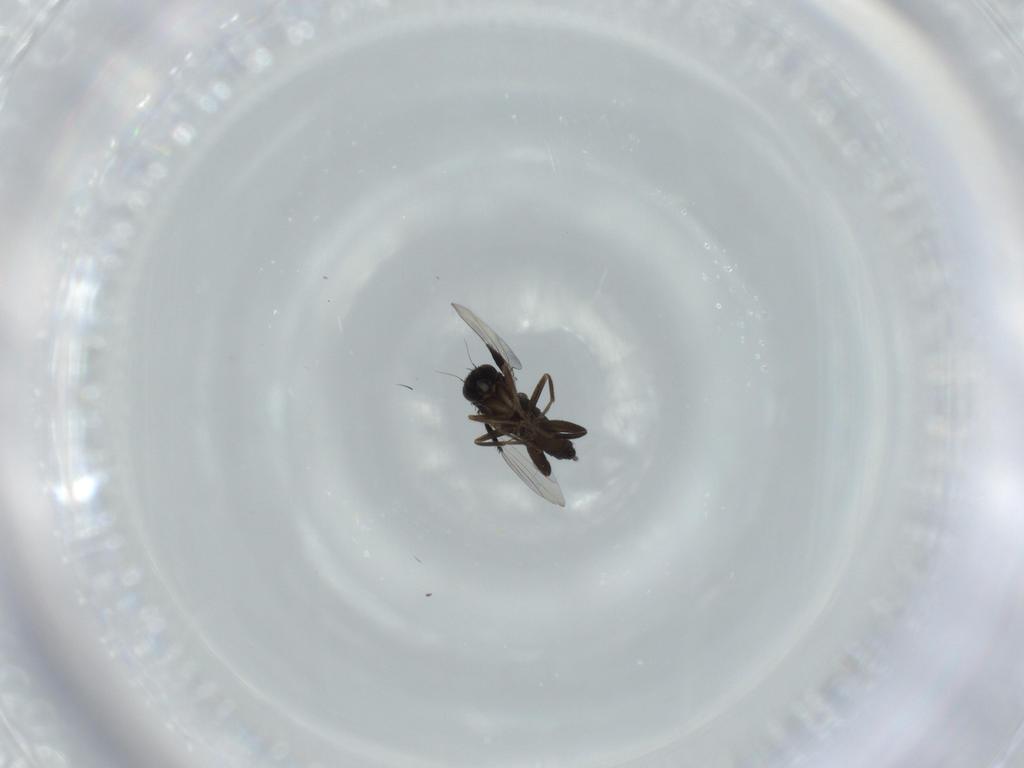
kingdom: Animalia
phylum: Arthropoda
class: Insecta
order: Diptera
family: Phoridae
